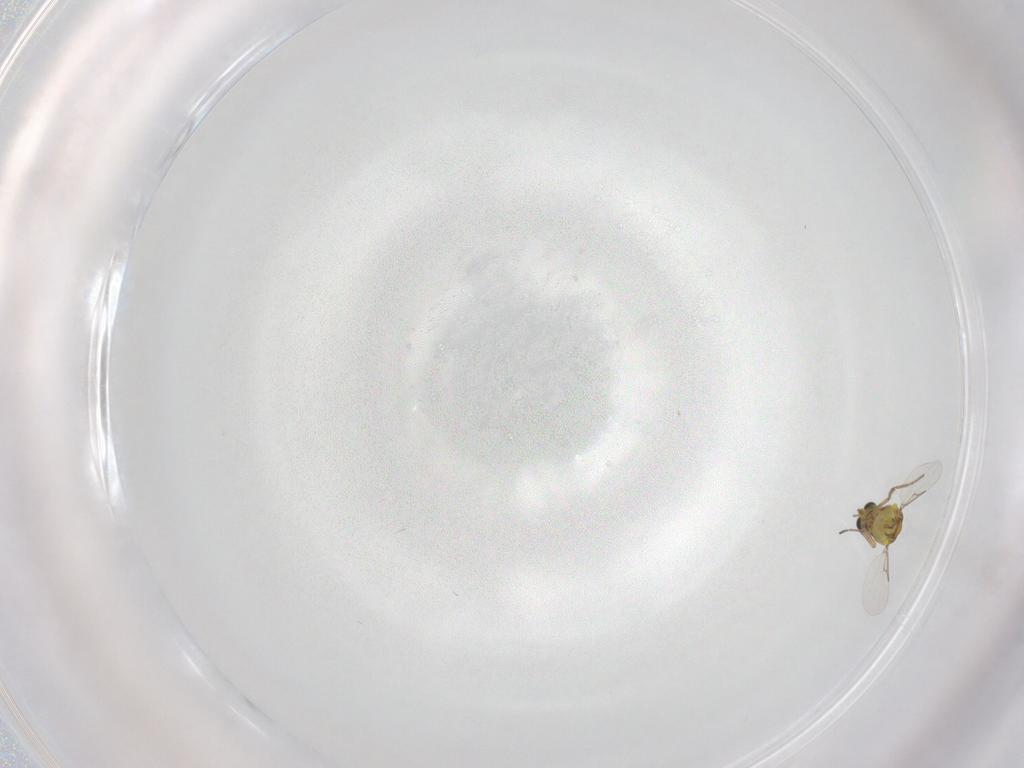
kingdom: Animalia
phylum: Arthropoda
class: Insecta
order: Diptera
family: Ceratopogonidae
